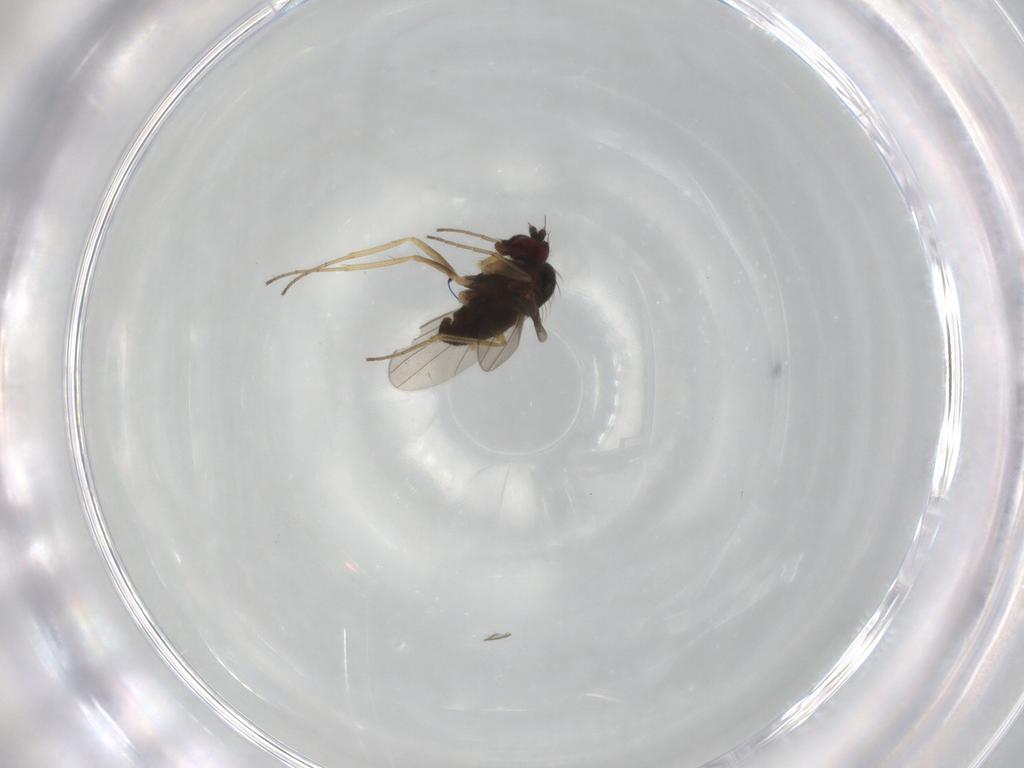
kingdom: Animalia
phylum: Arthropoda
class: Insecta
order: Diptera
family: Dolichopodidae
